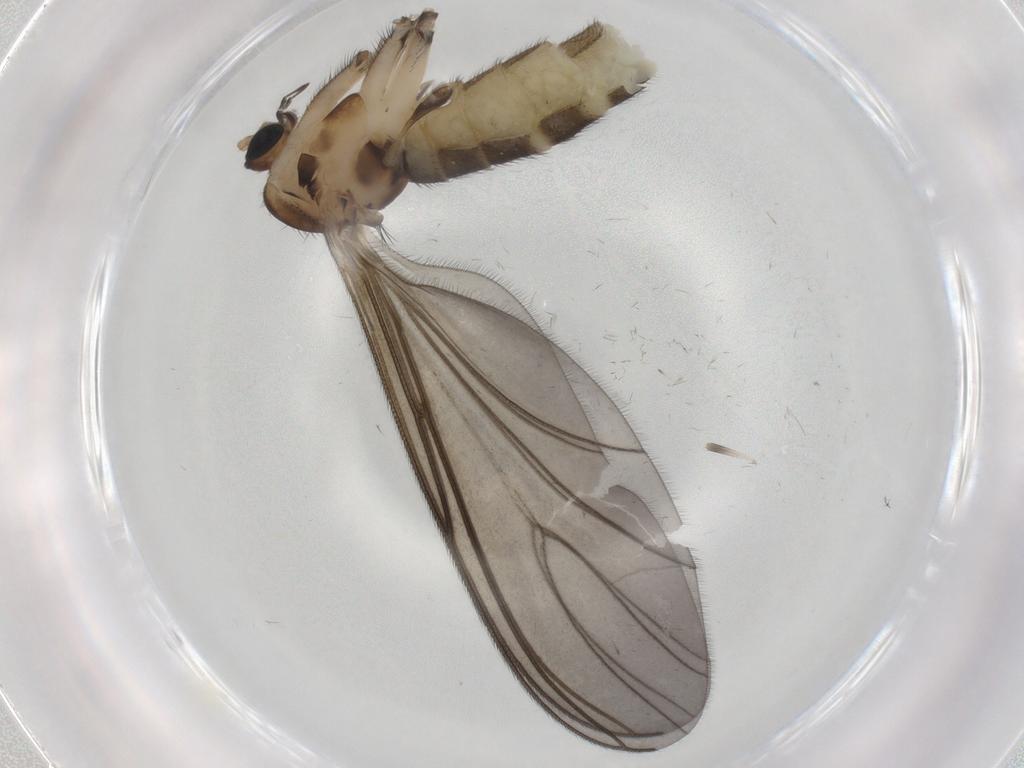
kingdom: Animalia
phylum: Arthropoda
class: Insecta
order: Diptera
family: Sciaridae
